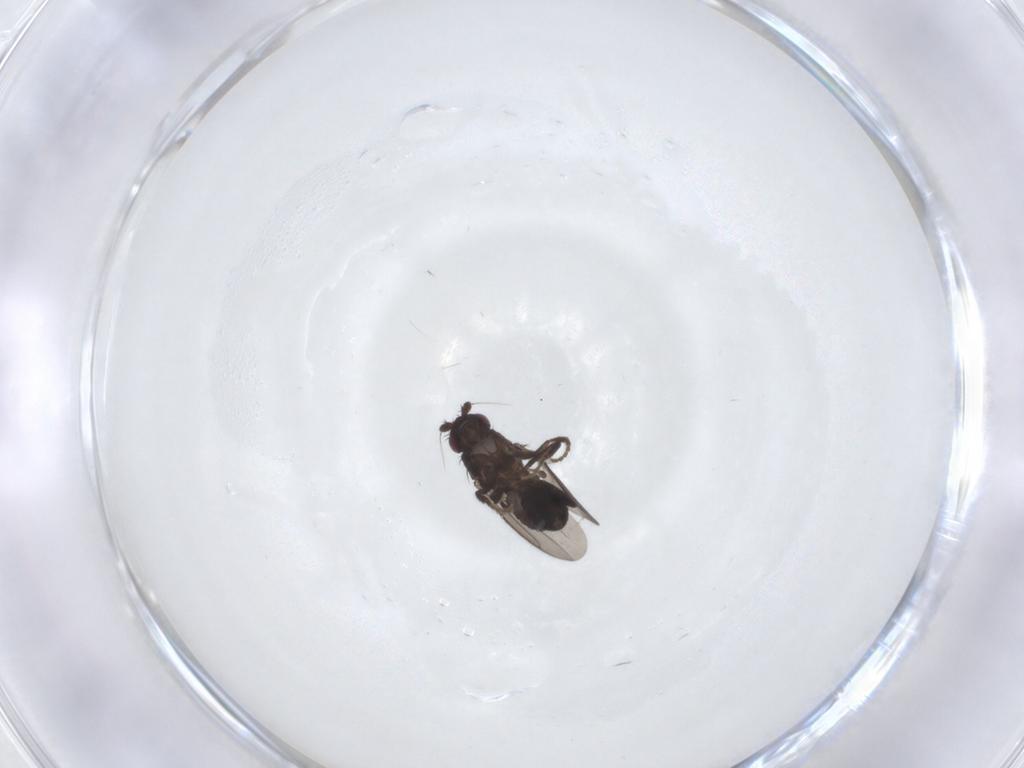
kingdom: Animalia
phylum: Arthropoda
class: Insecta
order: Diptera
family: Sphaeroceridae
